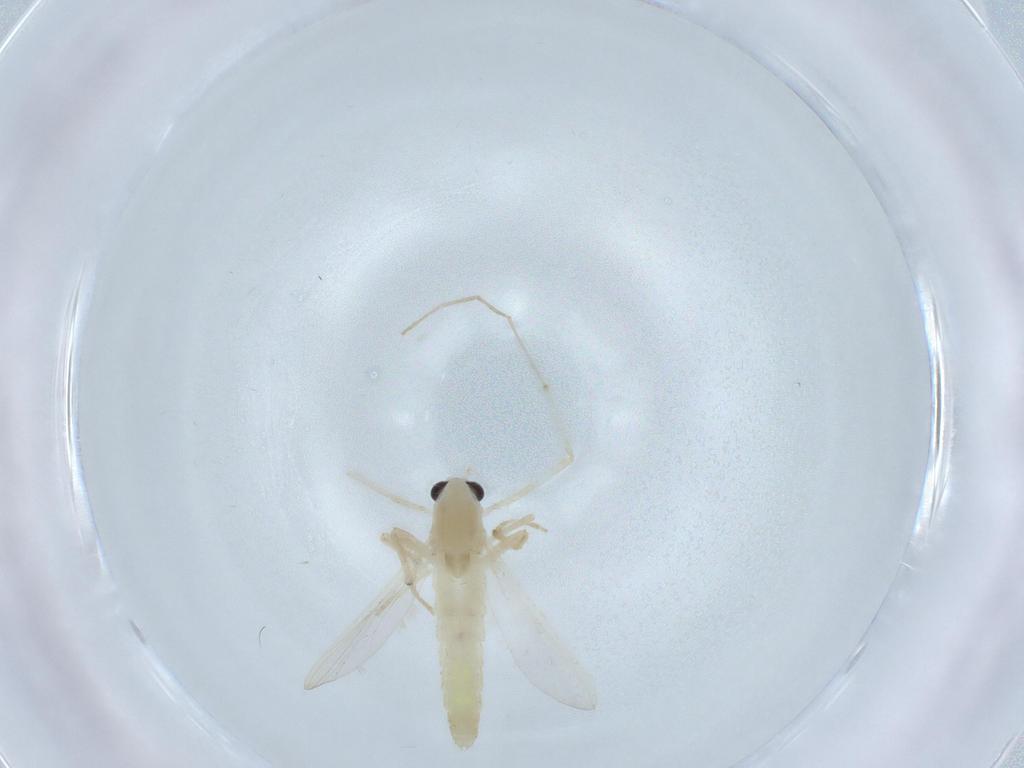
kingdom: Animalia
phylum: Arthropoda
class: Insecta
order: Diptera
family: Chironomidae
